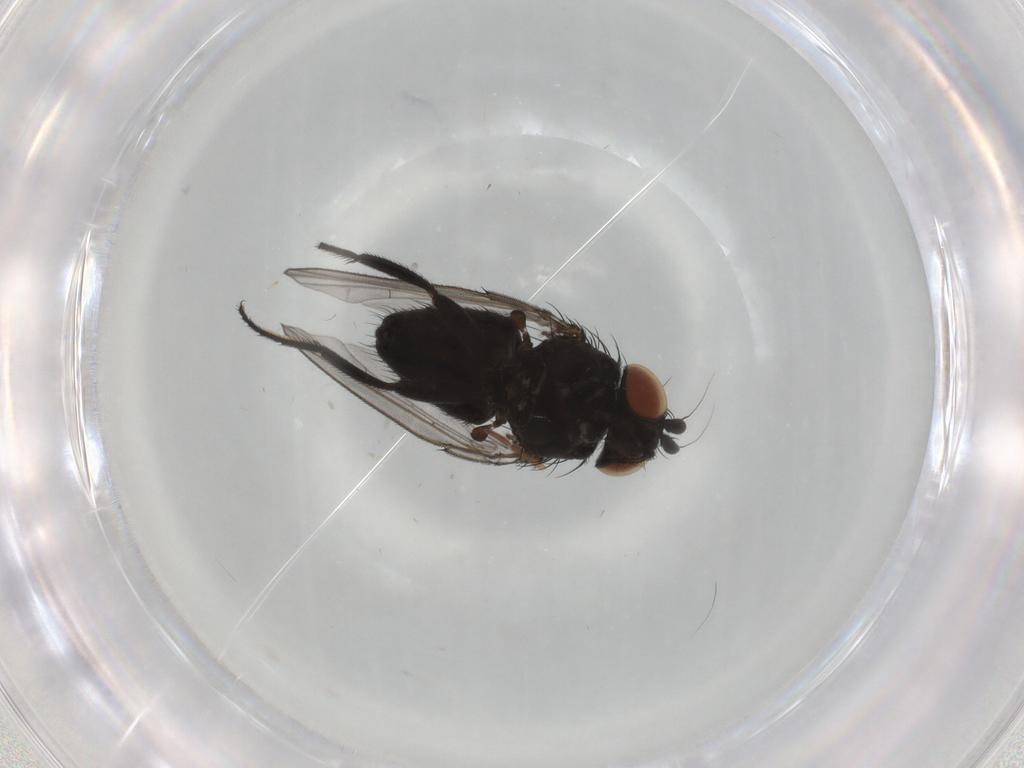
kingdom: Animalia
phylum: Arthropoda
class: Insecta
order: Diptera
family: Milichiidae
